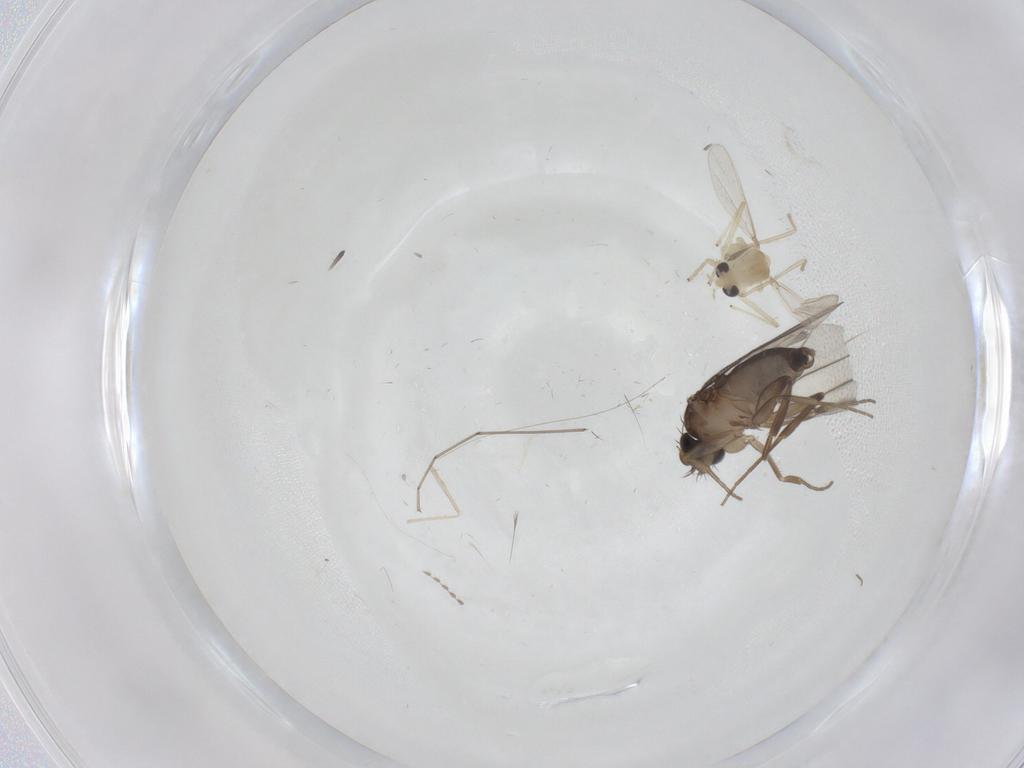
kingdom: Animalia
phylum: Arthropoda
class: Insecta
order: Diptera
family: Phoridae
